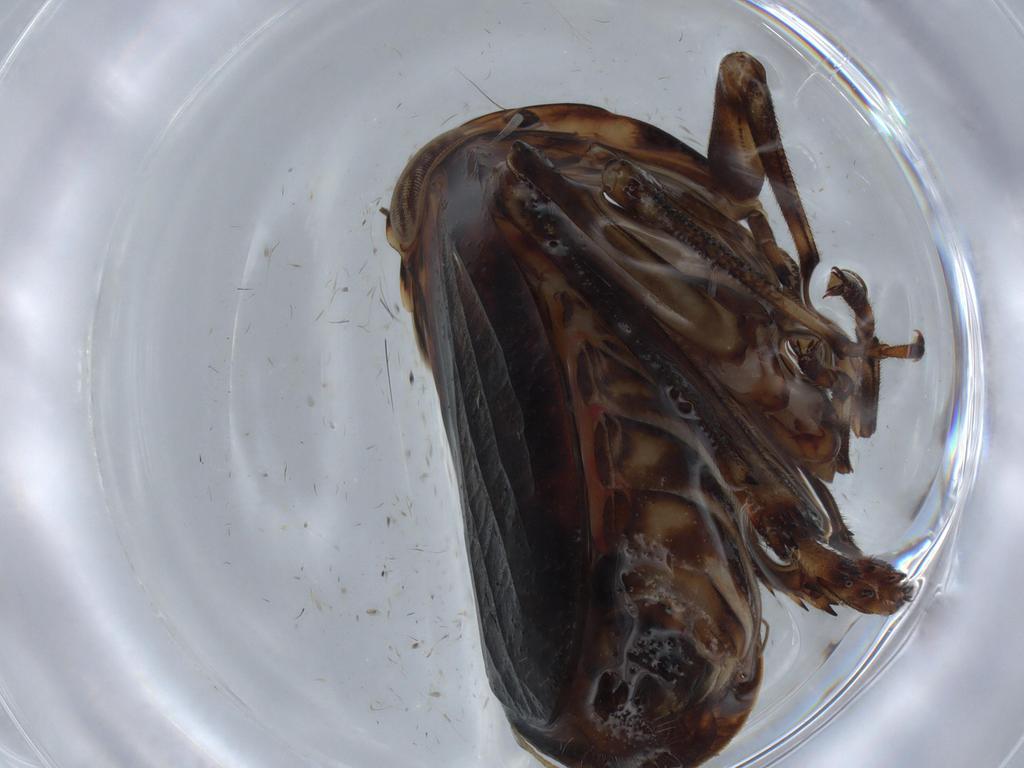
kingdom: Animalia
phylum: Arthropoda
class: Insecta
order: Hemiptera
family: Issidae
